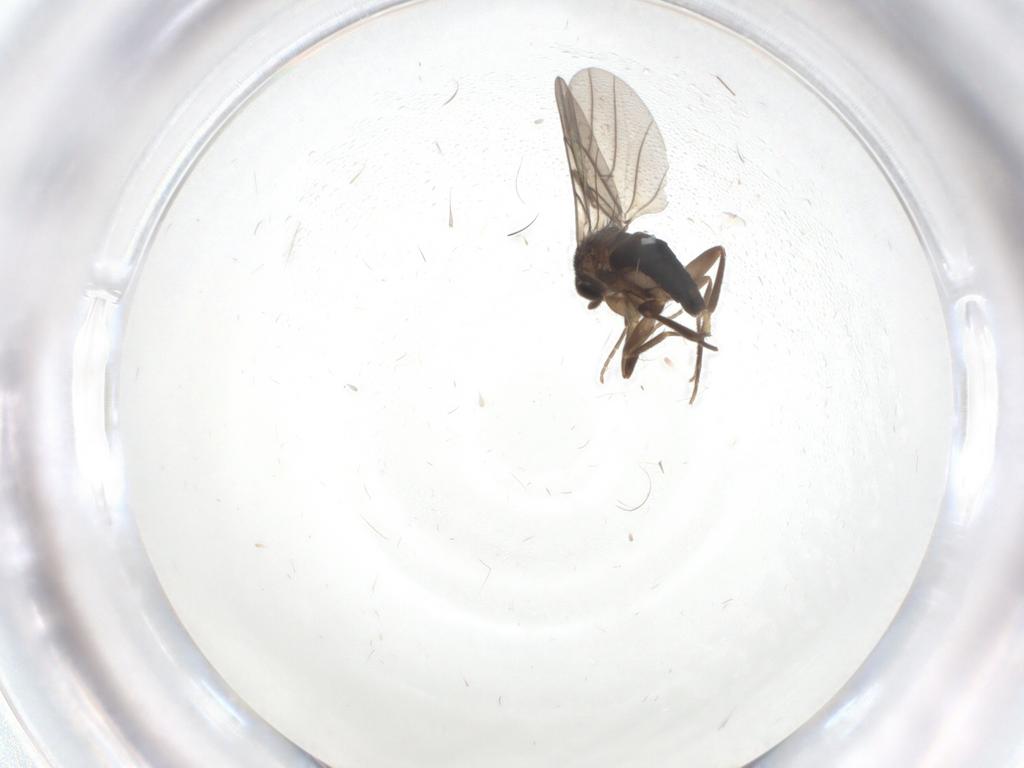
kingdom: Animalia
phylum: Arthropoda
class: Insecta
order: Diptera
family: Phoridae
